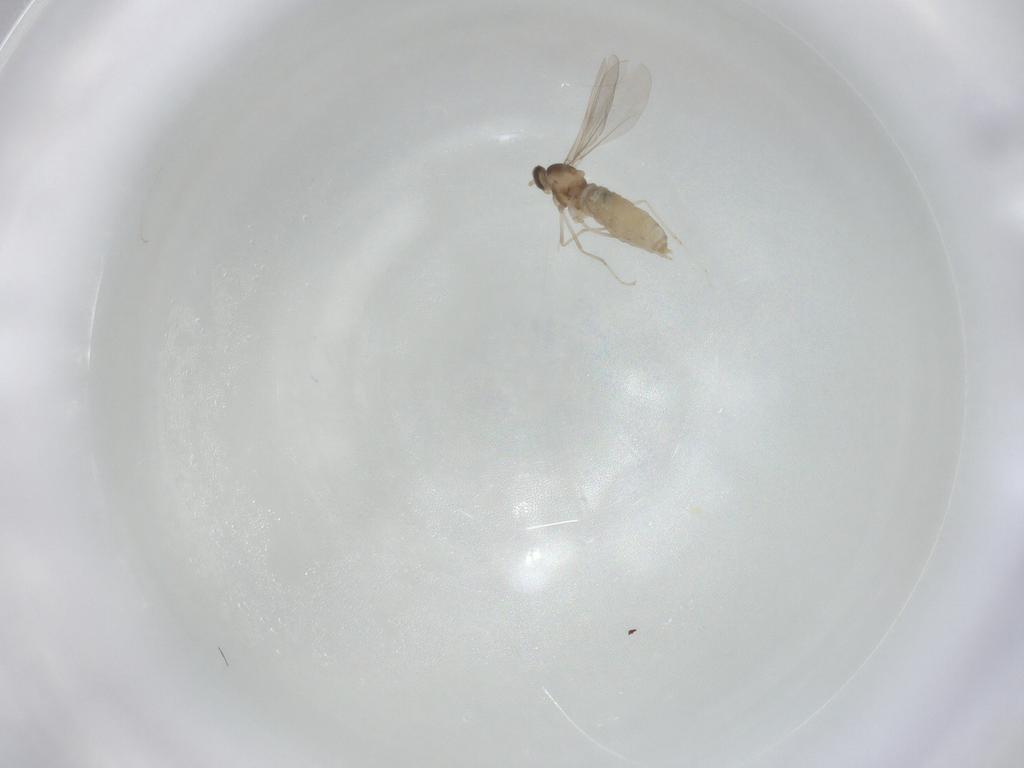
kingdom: Animalia
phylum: Arthropoda
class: Insecta
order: Diptera
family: Cecidomyiidae
